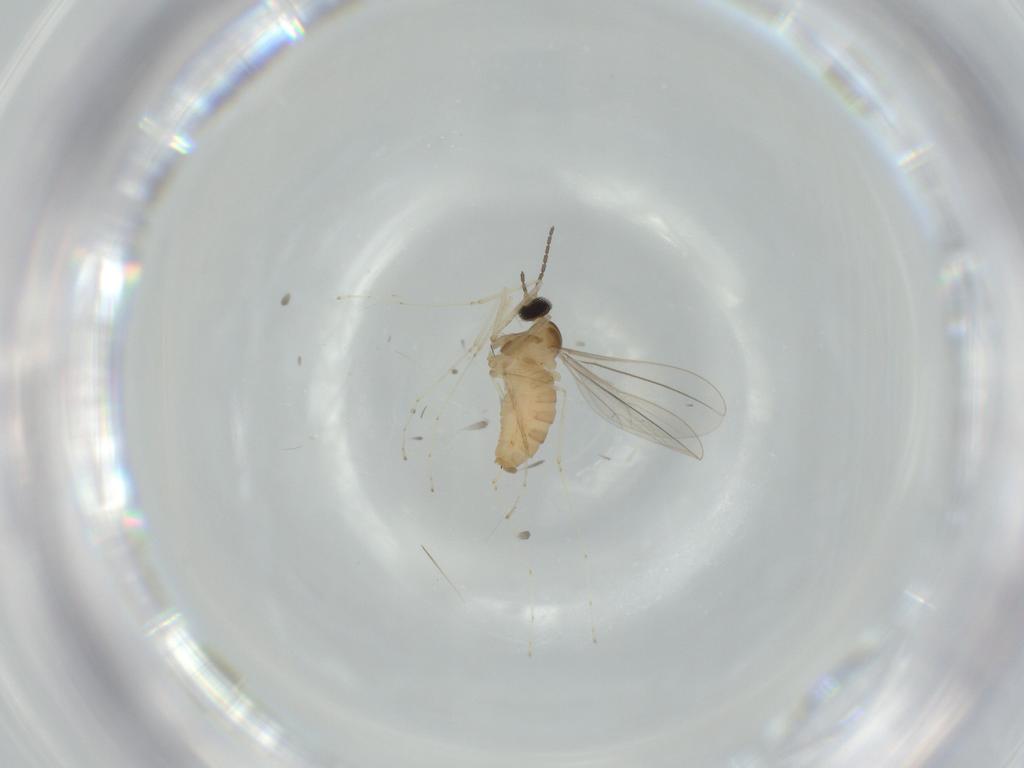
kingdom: Animalia
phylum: Arthropoda
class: Insecta
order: Diptera
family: Cecidomyiidae
